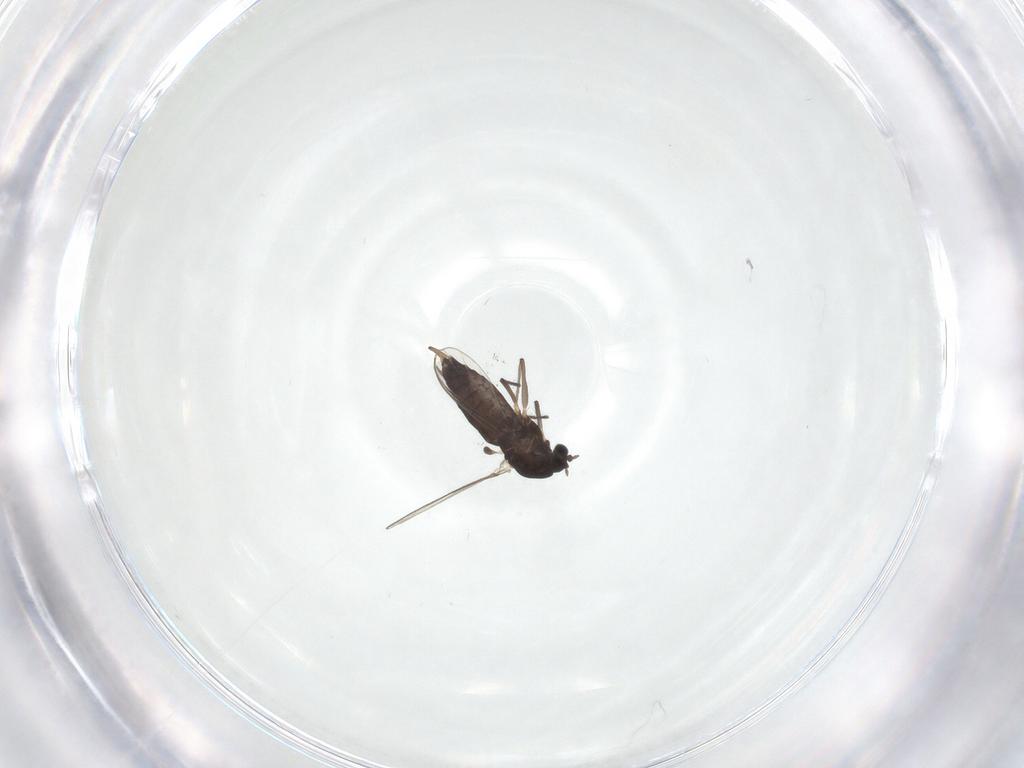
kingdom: Animalia
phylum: Arthropoda
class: Insecta
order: Diptera
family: Chironomidae
